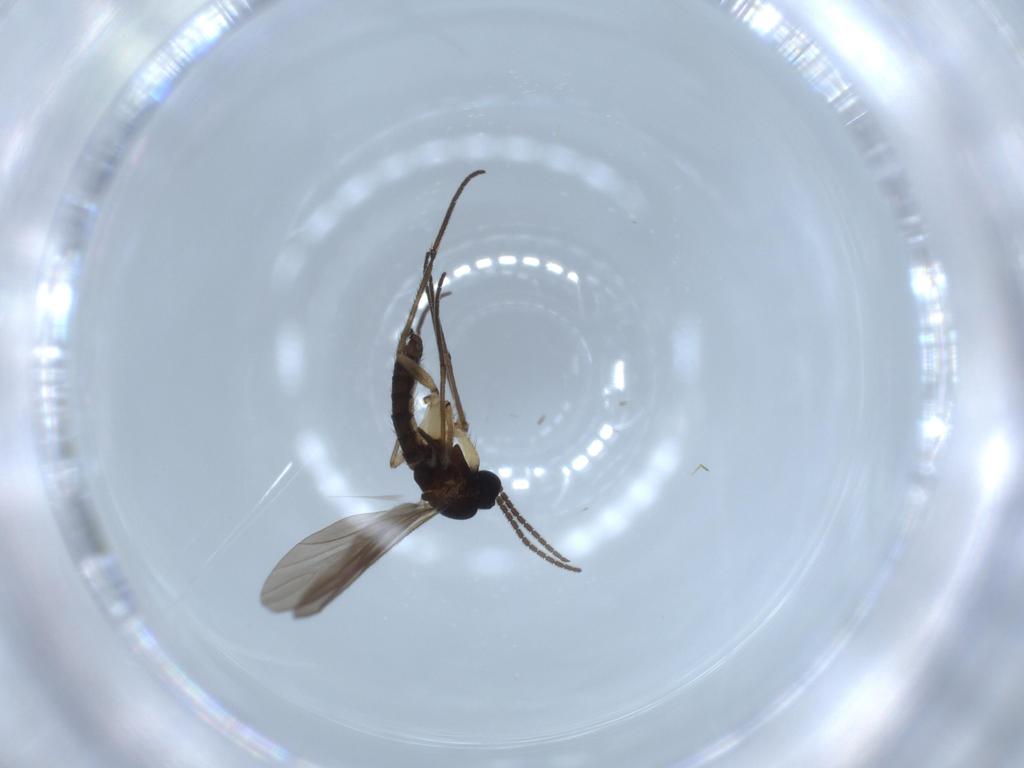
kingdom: Animalia
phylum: Arthropoda
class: Insecta
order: Diptera
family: Sciaridae
